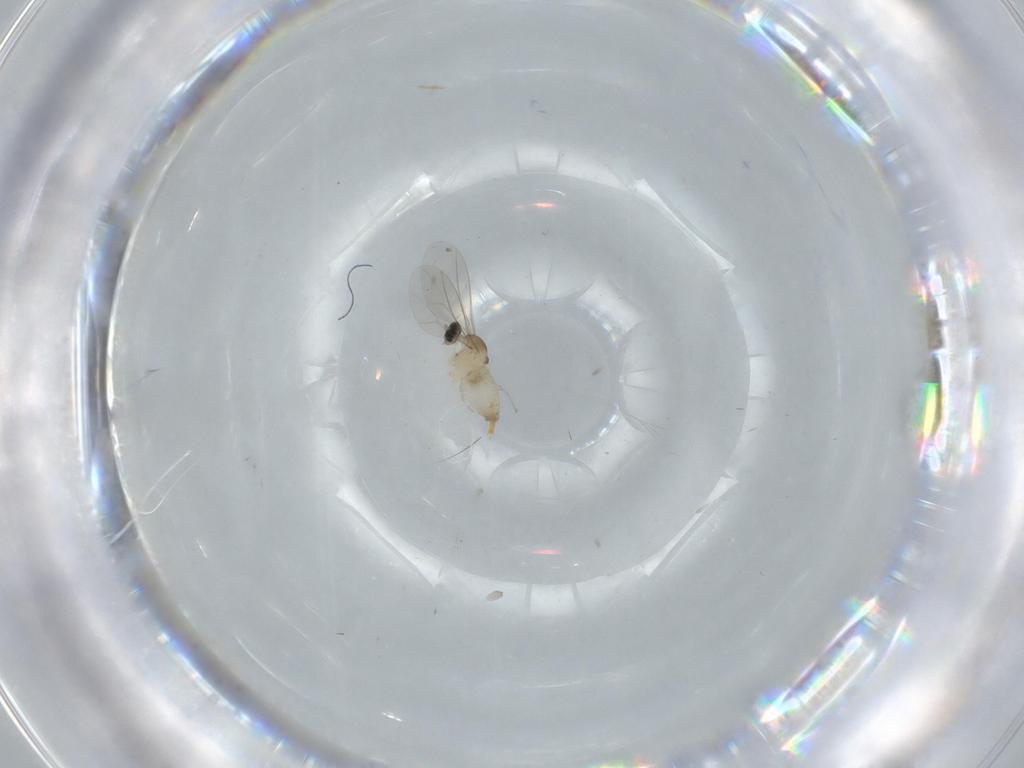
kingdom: Animalia
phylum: Arthropoda
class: Insecta
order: Diptera
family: Cecidomyiidae
